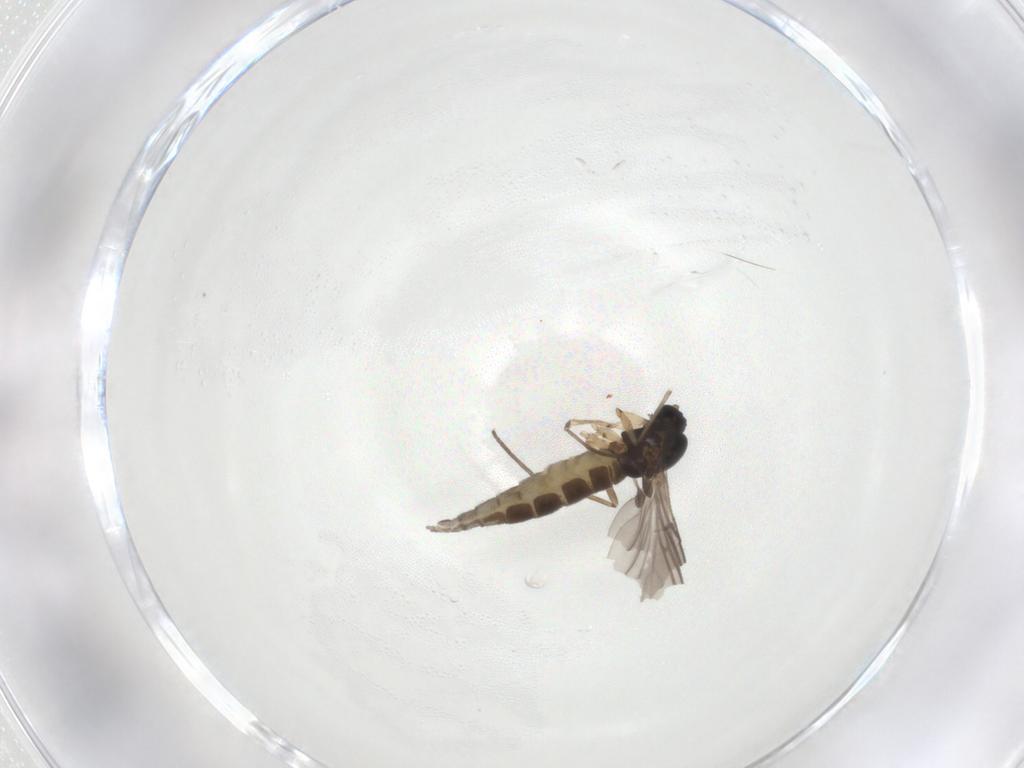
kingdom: Animalia
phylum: Arthropoda
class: Insecta
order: Diptera
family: Sciaridae
